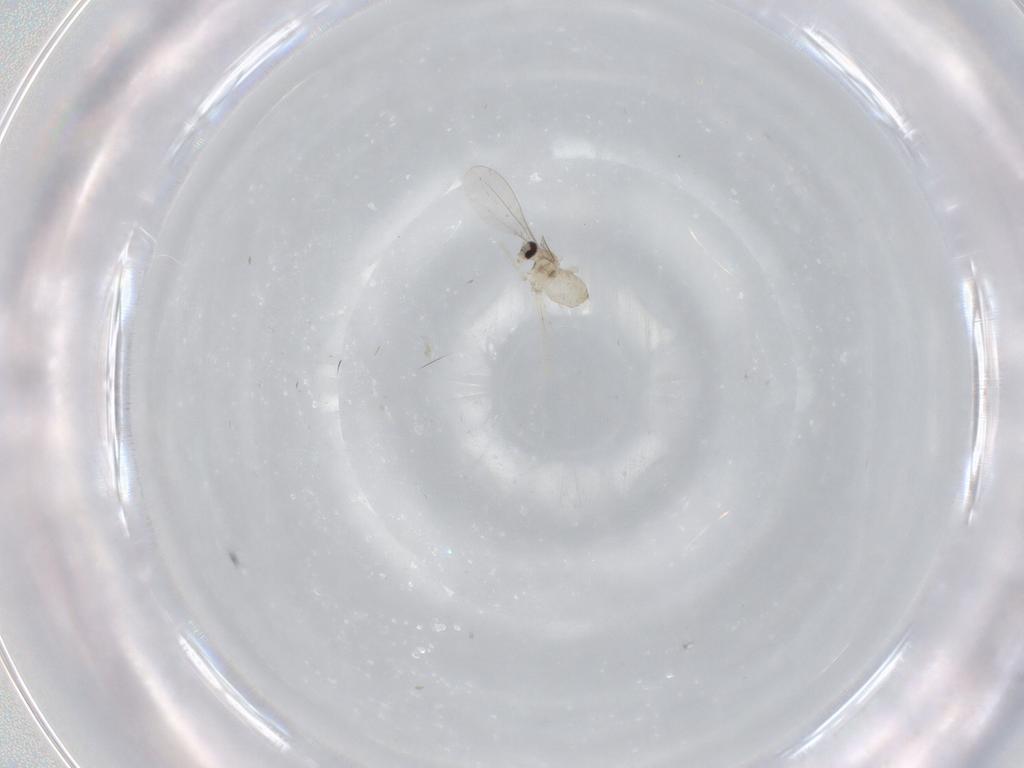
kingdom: Animalia
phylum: Arthropoda
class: Insecta
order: Diptera
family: Cecidomyiidae
